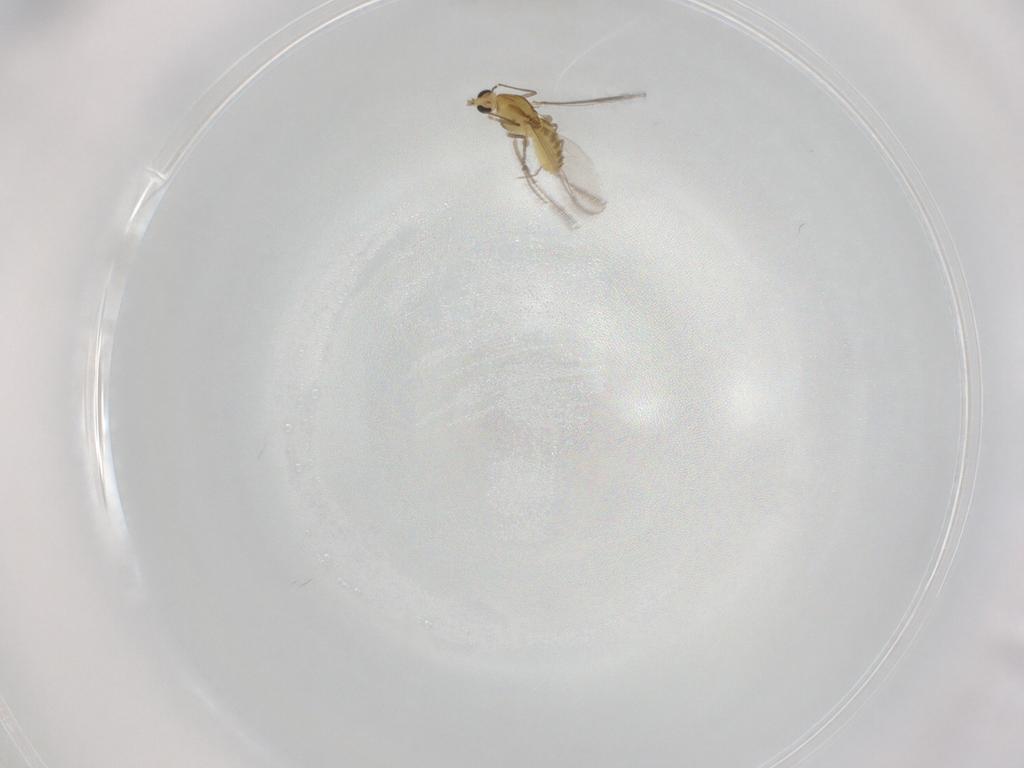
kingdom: Animalia
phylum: Arthropoda
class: Insecta
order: Diptera
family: Chironomidae
